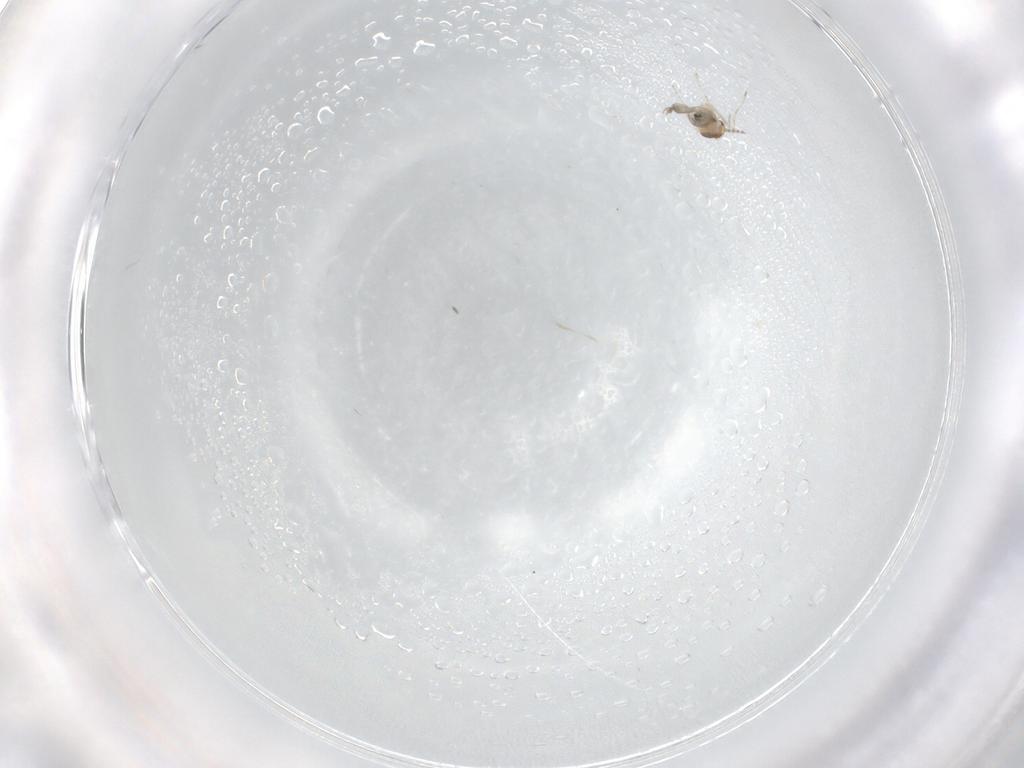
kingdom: Animalia
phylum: Arthropoda
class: Insecta
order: Diptera
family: Cecidomyiidae
